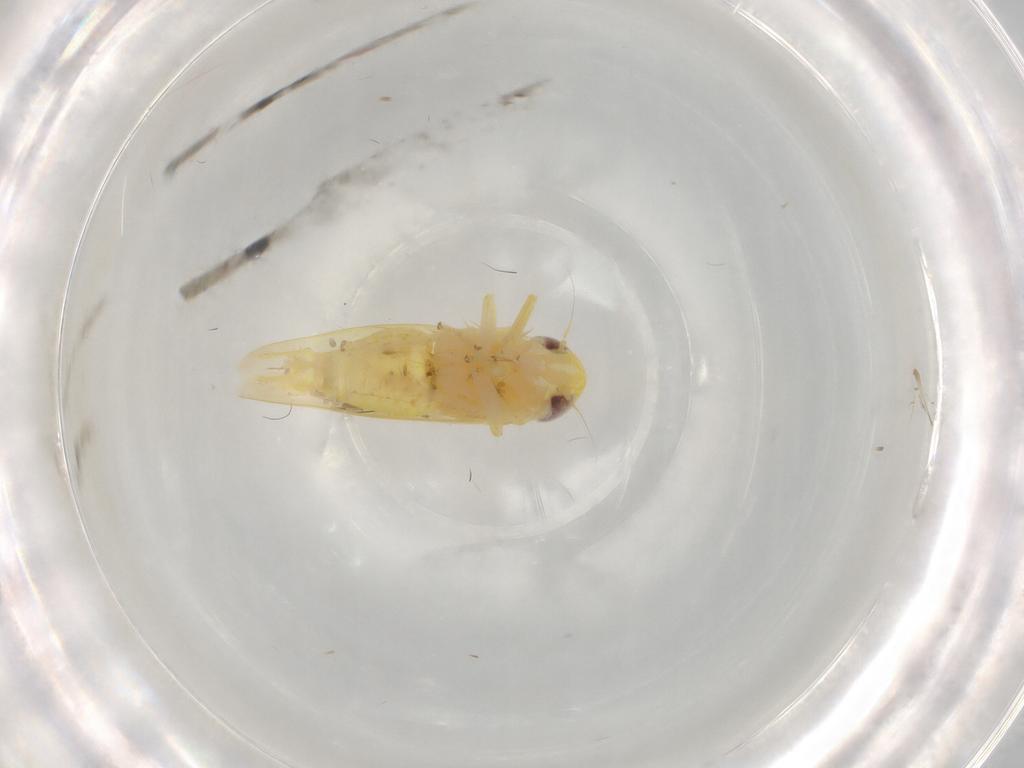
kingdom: Animalia
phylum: Arthropoda
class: Insecta
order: Hemiptera
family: Cicadellidae
